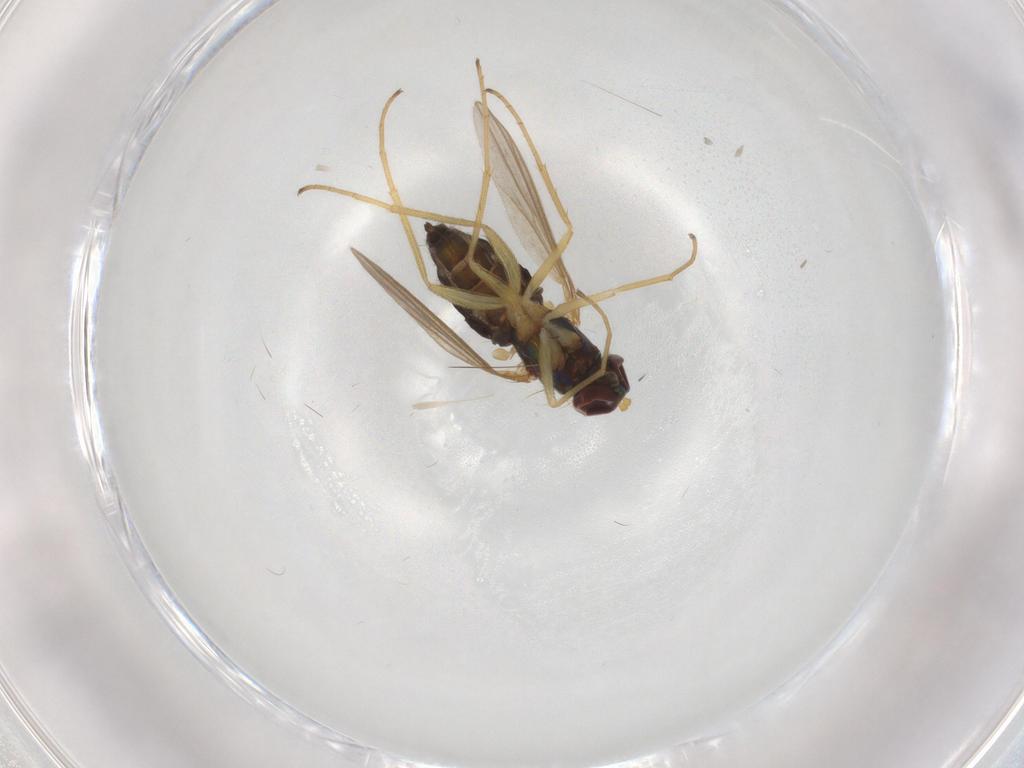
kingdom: Animalia
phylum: Arthropoda
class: Insecta
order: Diptera
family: Dolichopodidae
